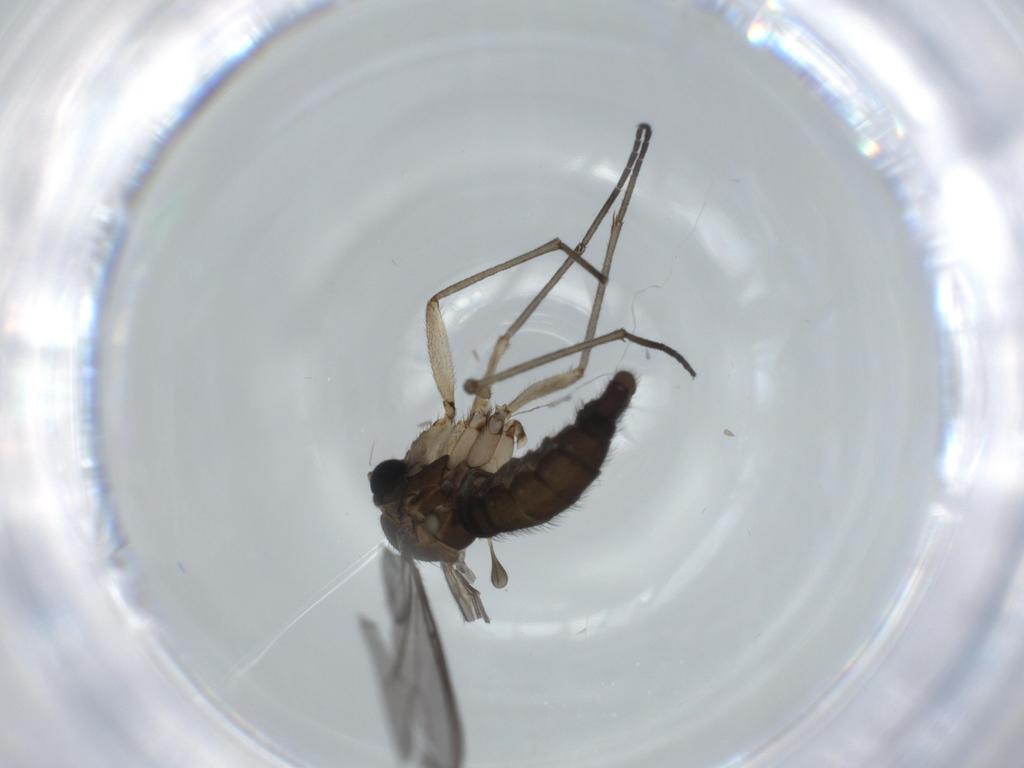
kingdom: Animalia
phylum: Arthropoda
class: Insecta
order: Diptera
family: Sciaridae
